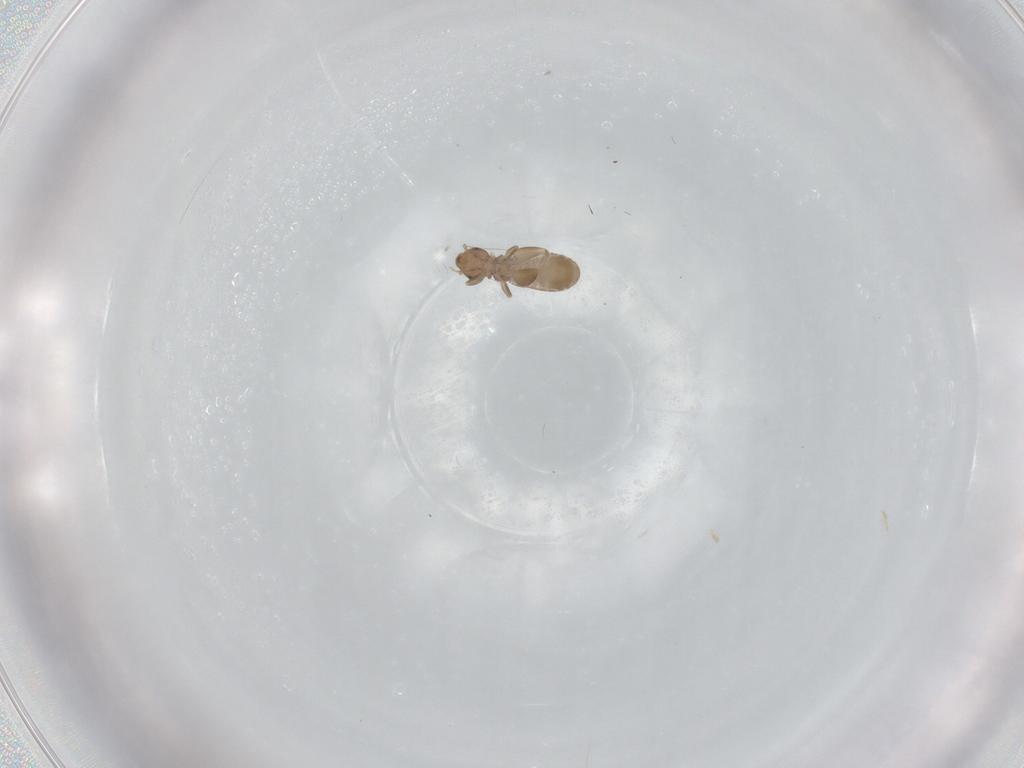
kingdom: Animalia
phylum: Arthropoda
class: Insecta
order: Psocodea
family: Liposcelididae
